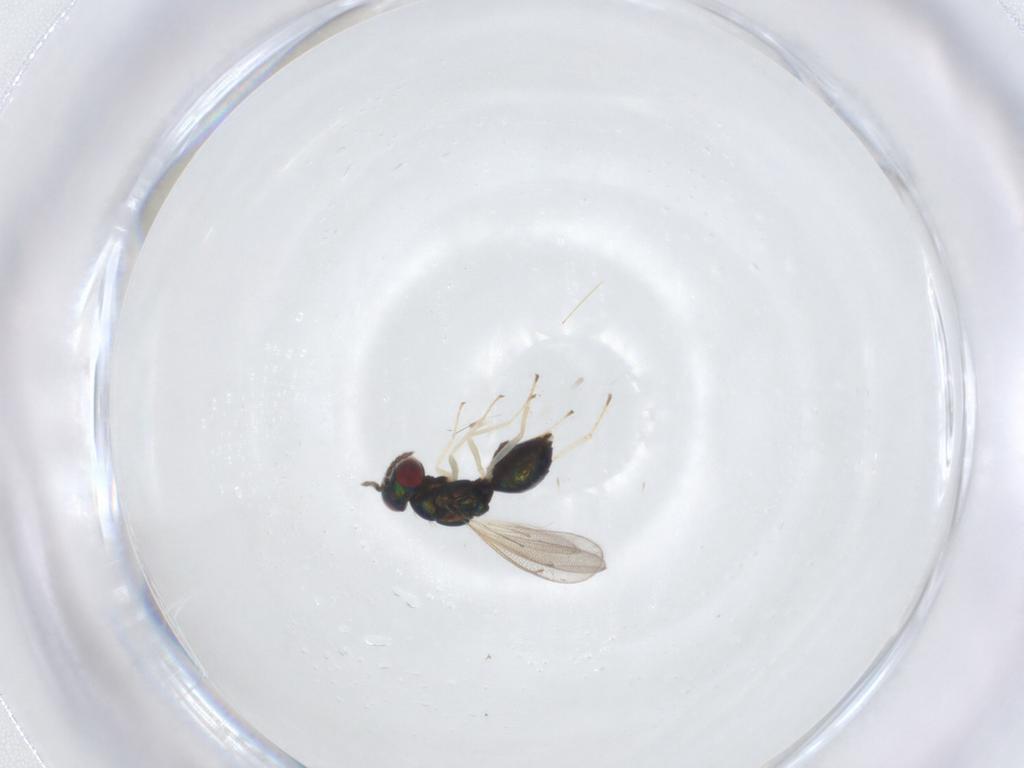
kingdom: Animalia
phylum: Arthropoda
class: Insecta
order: Hymenoptera
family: Eulophidae
